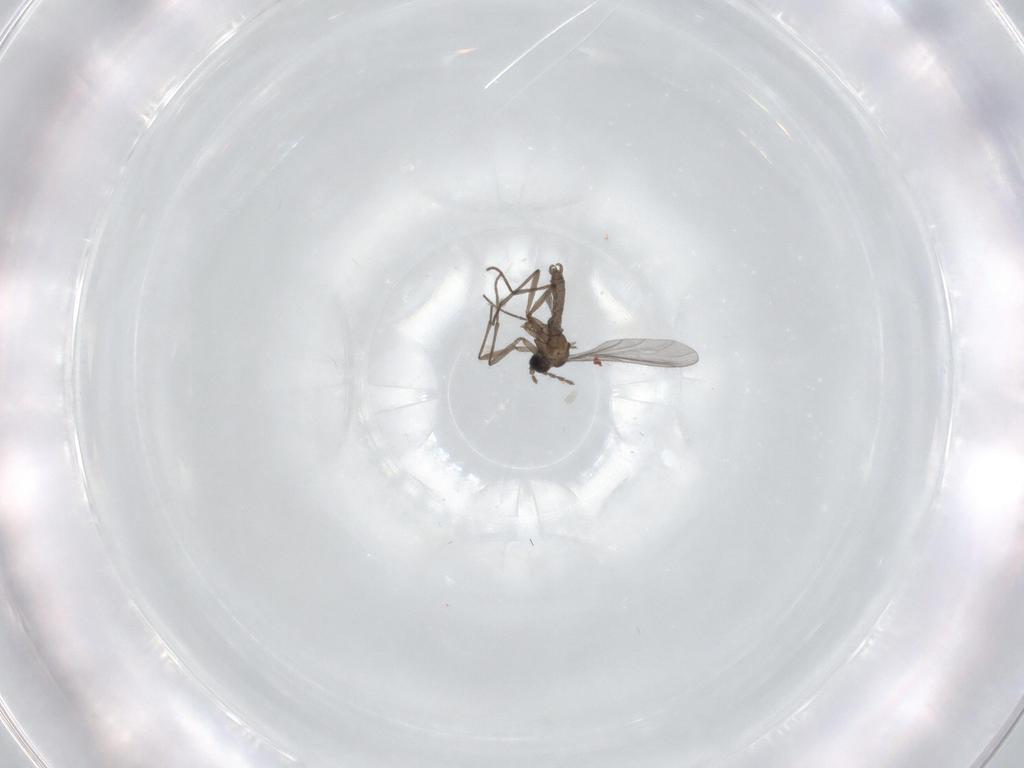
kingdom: Animalia
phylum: Arthropoda
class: Insecta
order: Diptera
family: Cecidomyiidae
